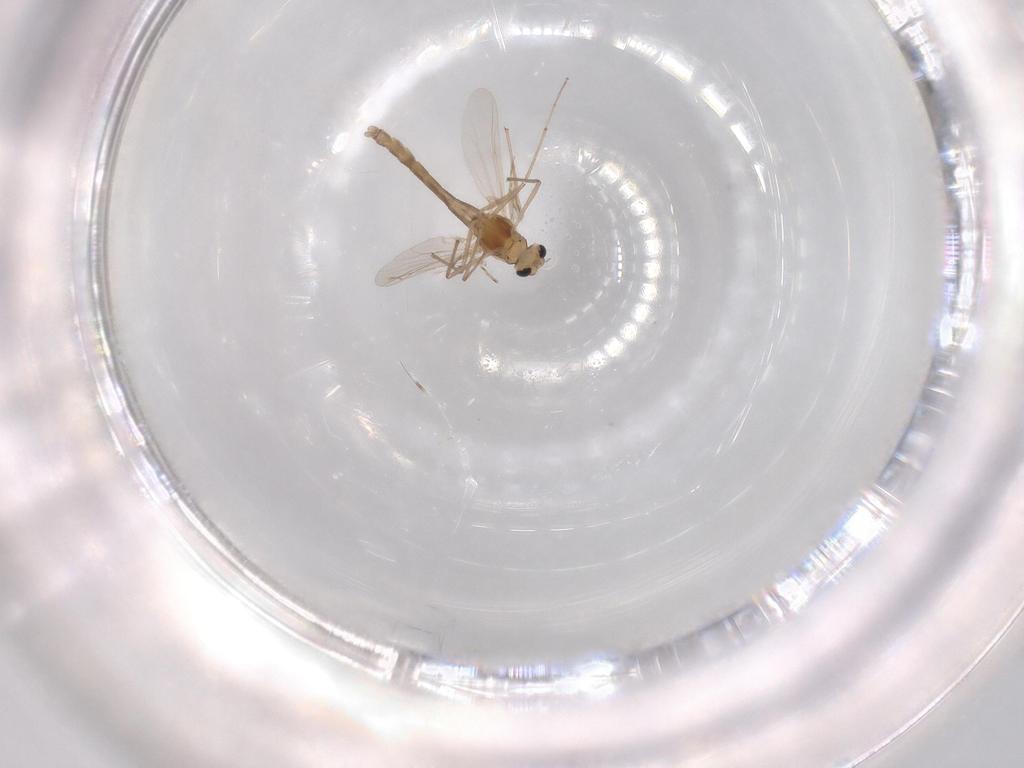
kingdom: Animalia
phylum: Arthropoda
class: Insecta
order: Diptera
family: Chironomidae
